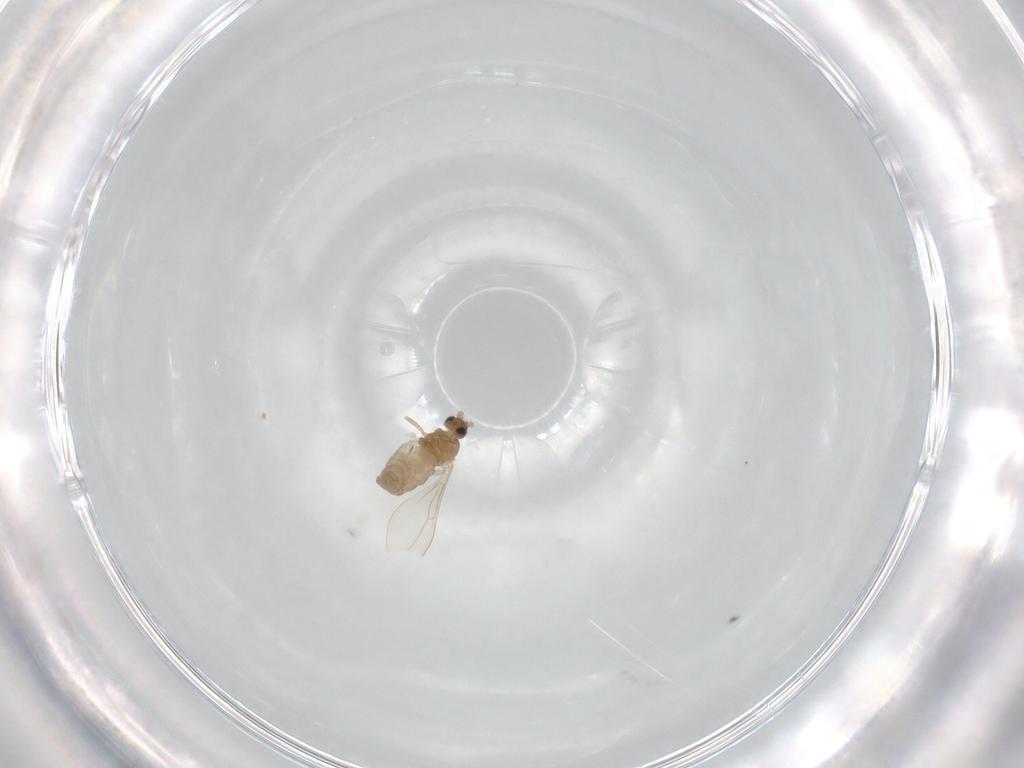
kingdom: Animalia
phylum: Arthropoda
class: Insecta
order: Diptera
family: Cecidomyiidae
